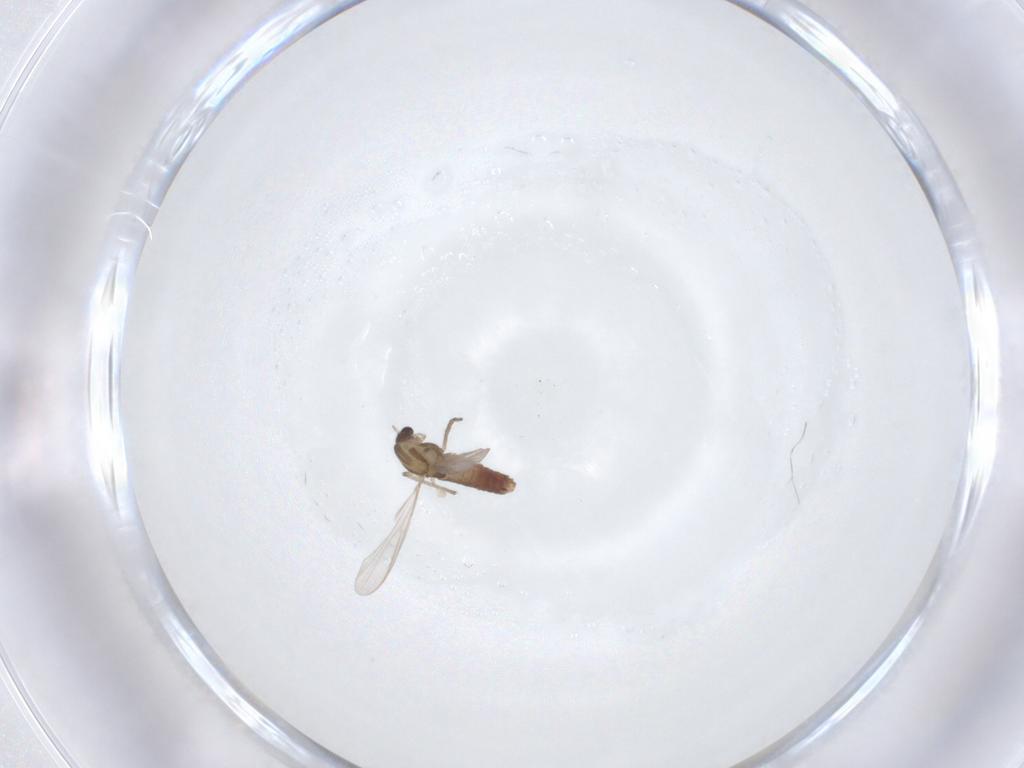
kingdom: Animalia
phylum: Arthropoda
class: Insecta
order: Diptera
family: Chironomidae
